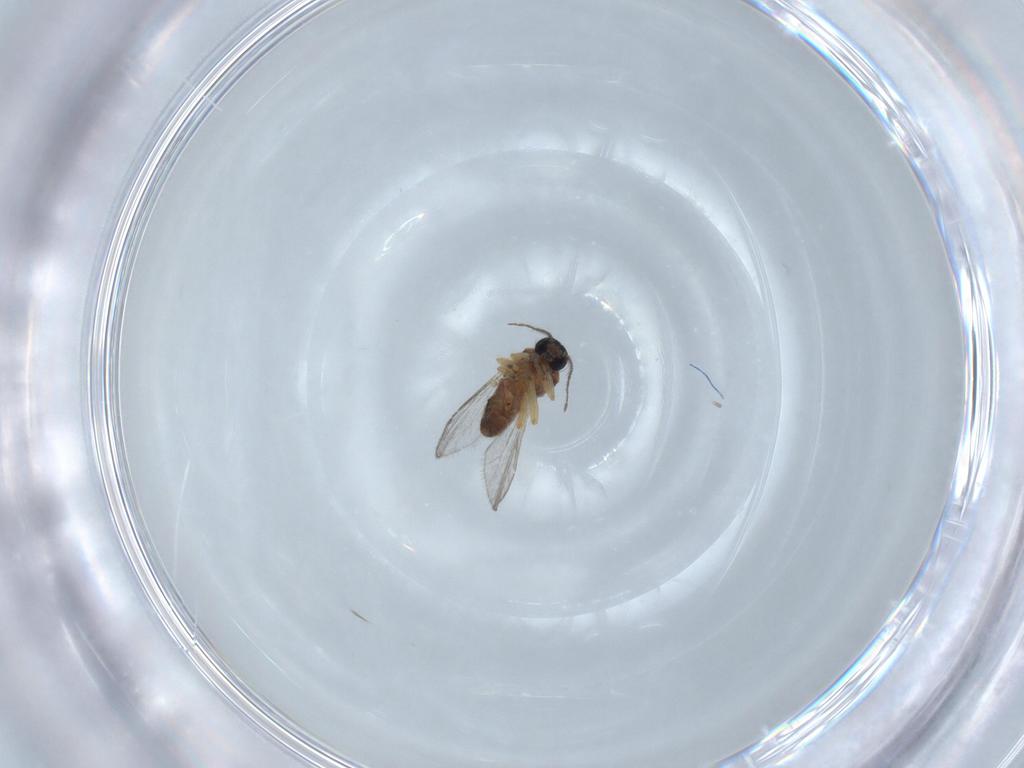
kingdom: Animalia
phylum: Arthropoda
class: Insecta
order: Diptera
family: Ceratopogonidae
